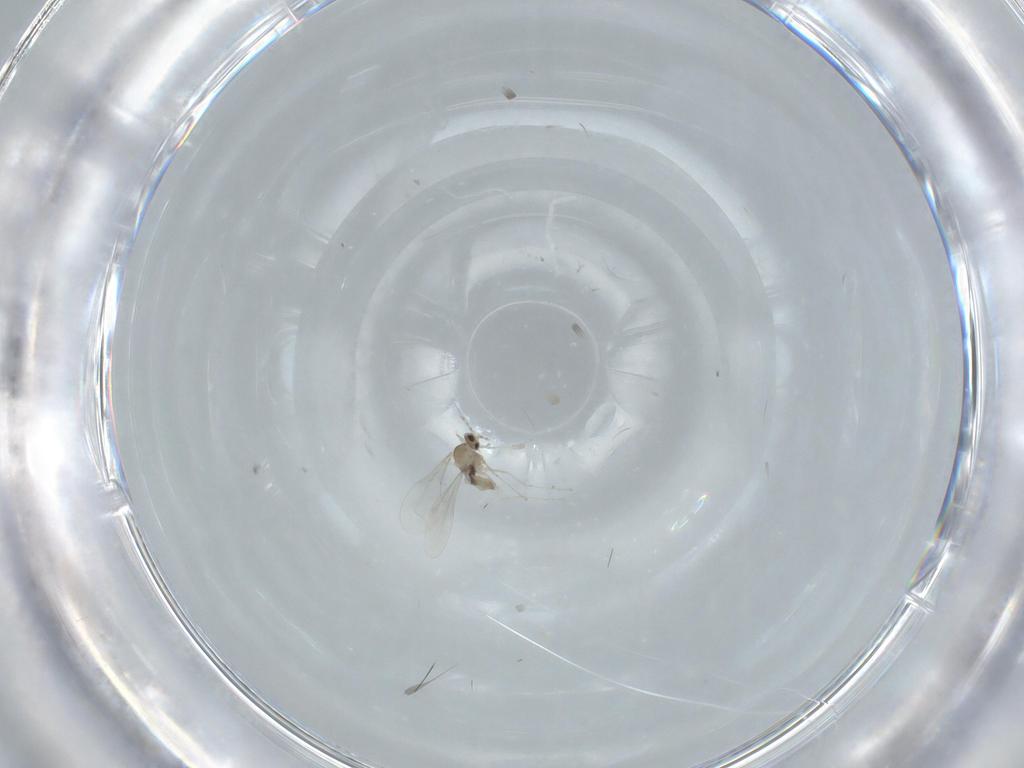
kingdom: Animalia
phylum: Arthropoda
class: Insecta
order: Diptera
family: Cecidomyiidae
